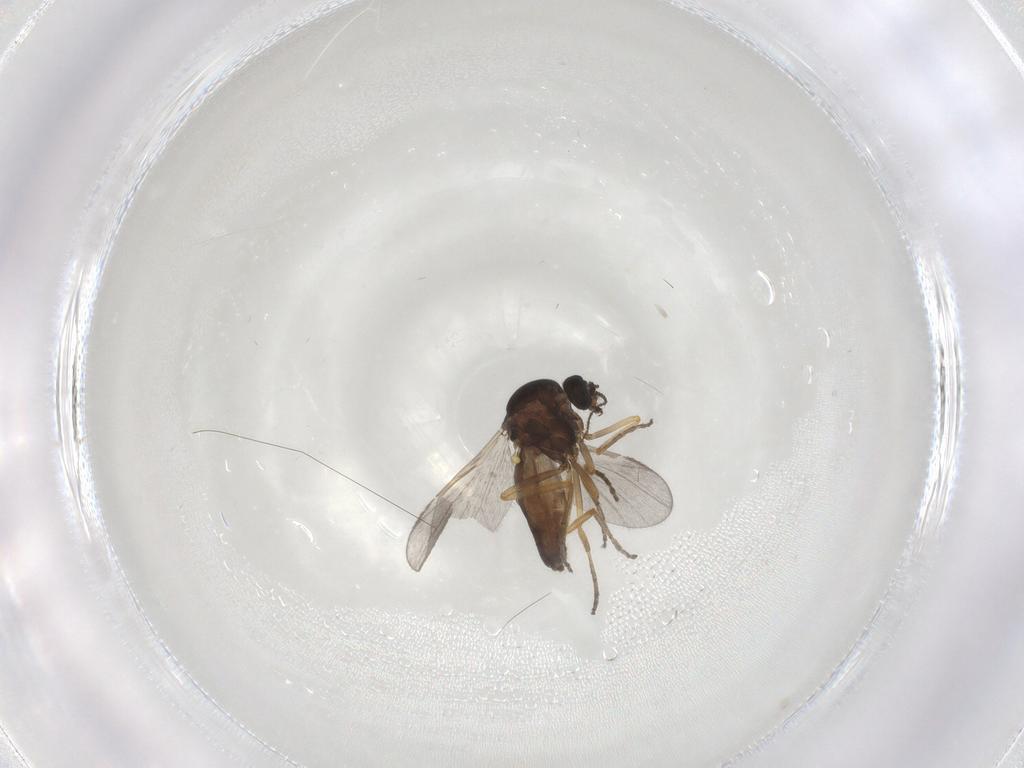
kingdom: Animalia
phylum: Arthropoda
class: Insecta
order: Diptera
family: Ceratopogonidae
